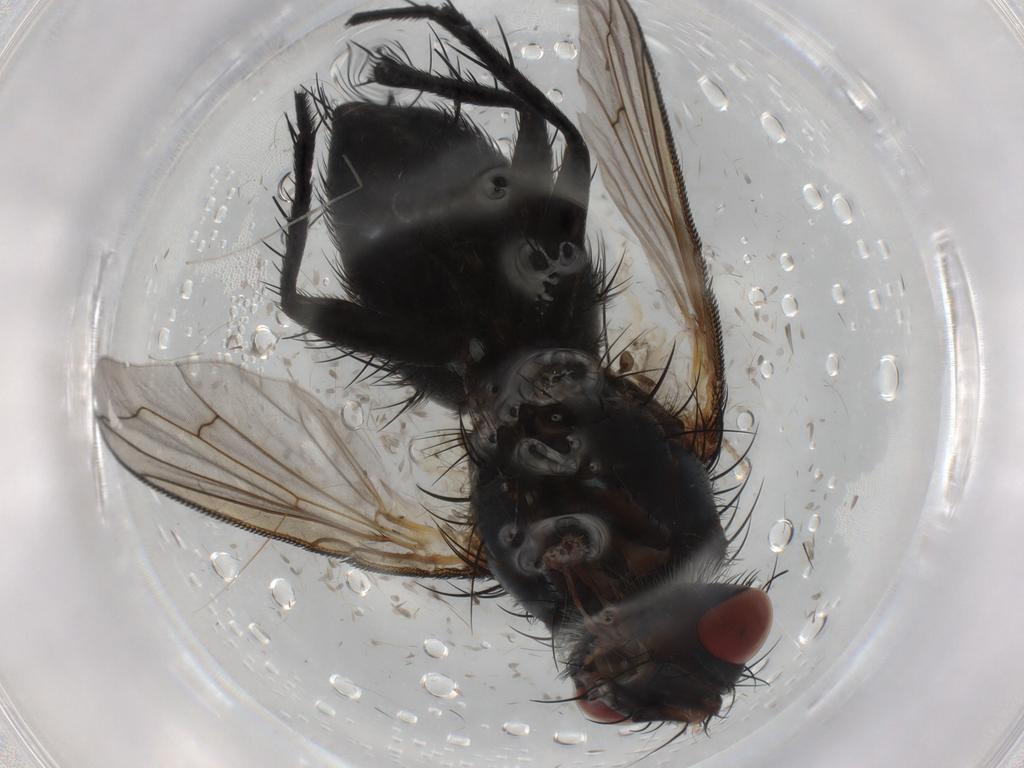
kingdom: Animalia
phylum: Arthropoda
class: Insecta
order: Diptera
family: Tachinidae
